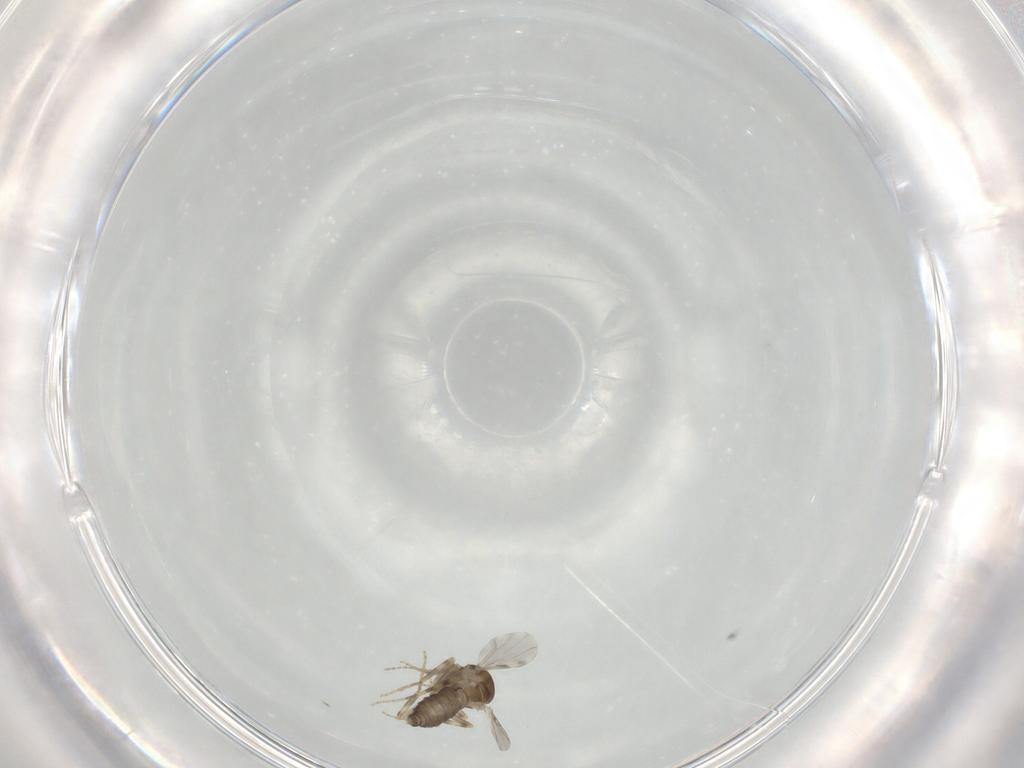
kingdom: Animalia
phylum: Arthropoda
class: Insecta
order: Diptera
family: Ceratopogonidae
